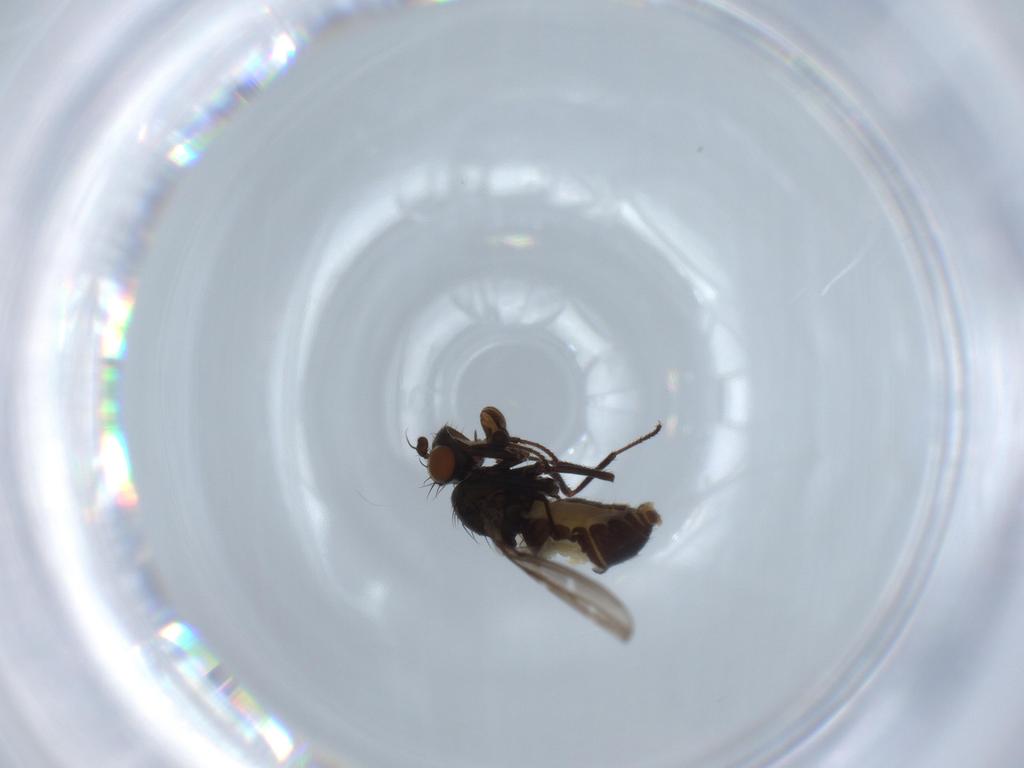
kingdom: Animalia
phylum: Arthropoda
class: Insecta
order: Diptera
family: Ephydridae
